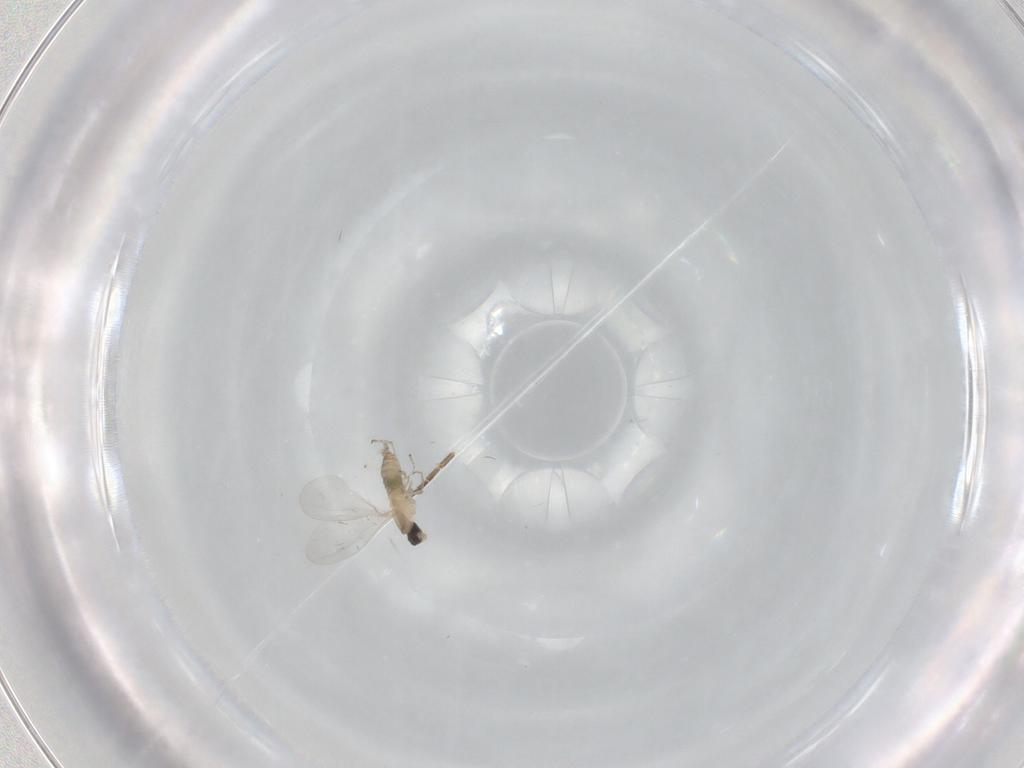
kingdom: Animalia
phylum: Arthropoda
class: Insecta
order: Diptera
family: Cecidomyiidae
